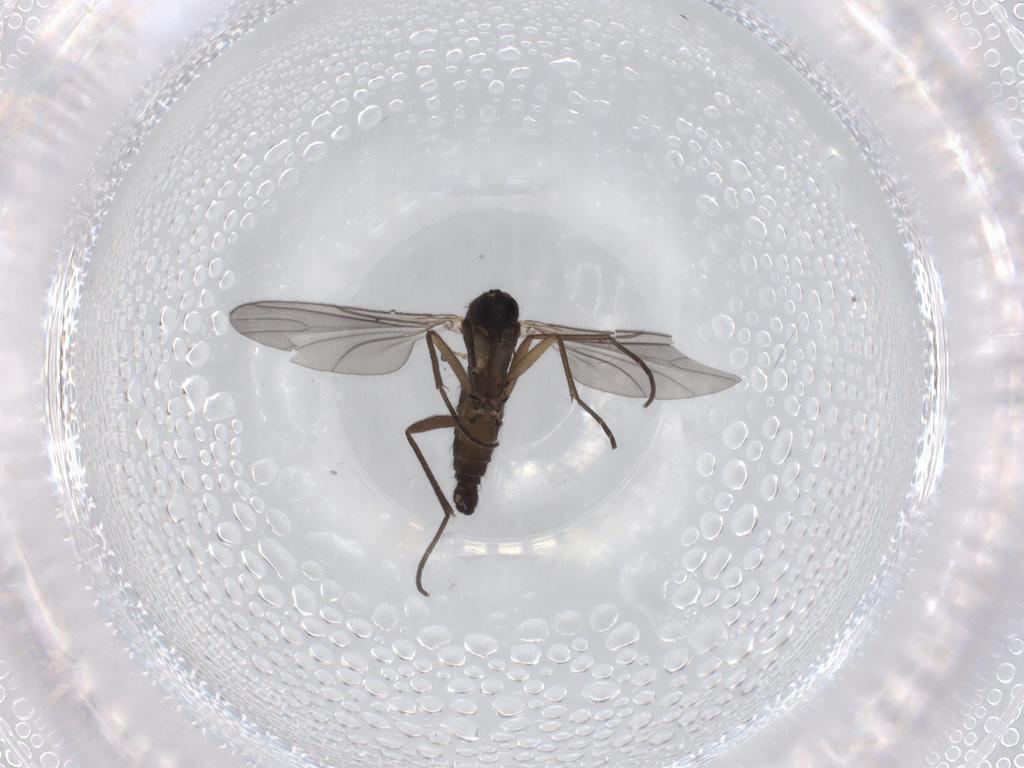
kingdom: Animalia
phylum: Arthropoda
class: Insecta
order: Diptera
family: Sciaridae
